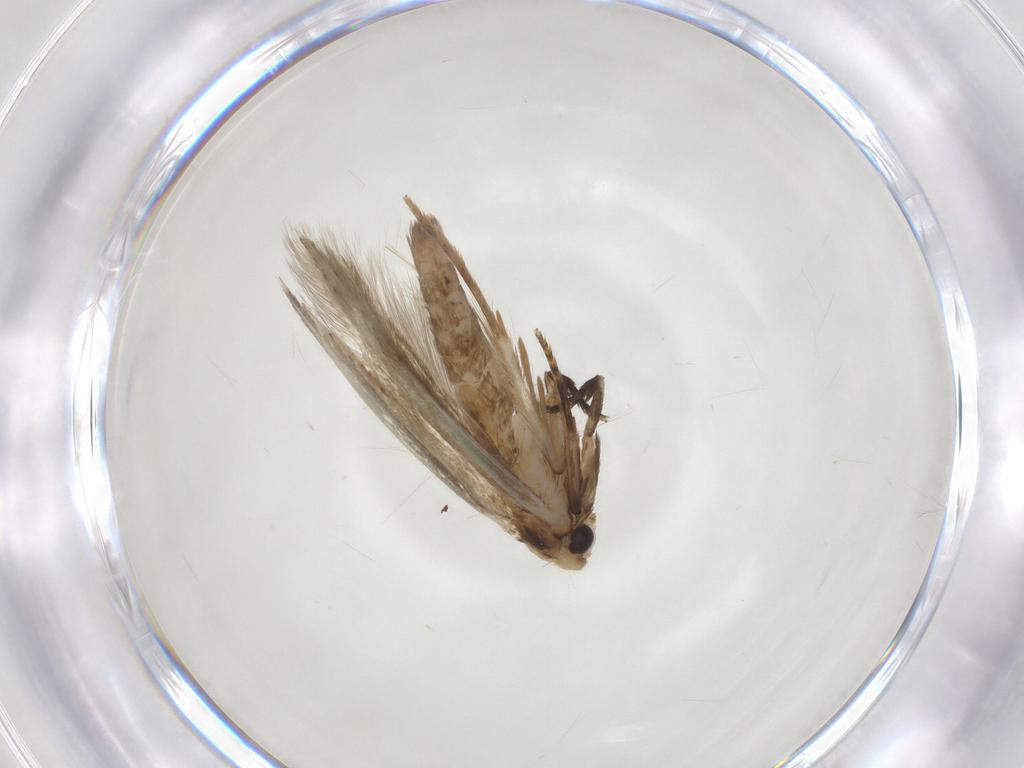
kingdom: Animalia
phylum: Arthropoda
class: Insecta
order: Lepidoptera
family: Tineidae
